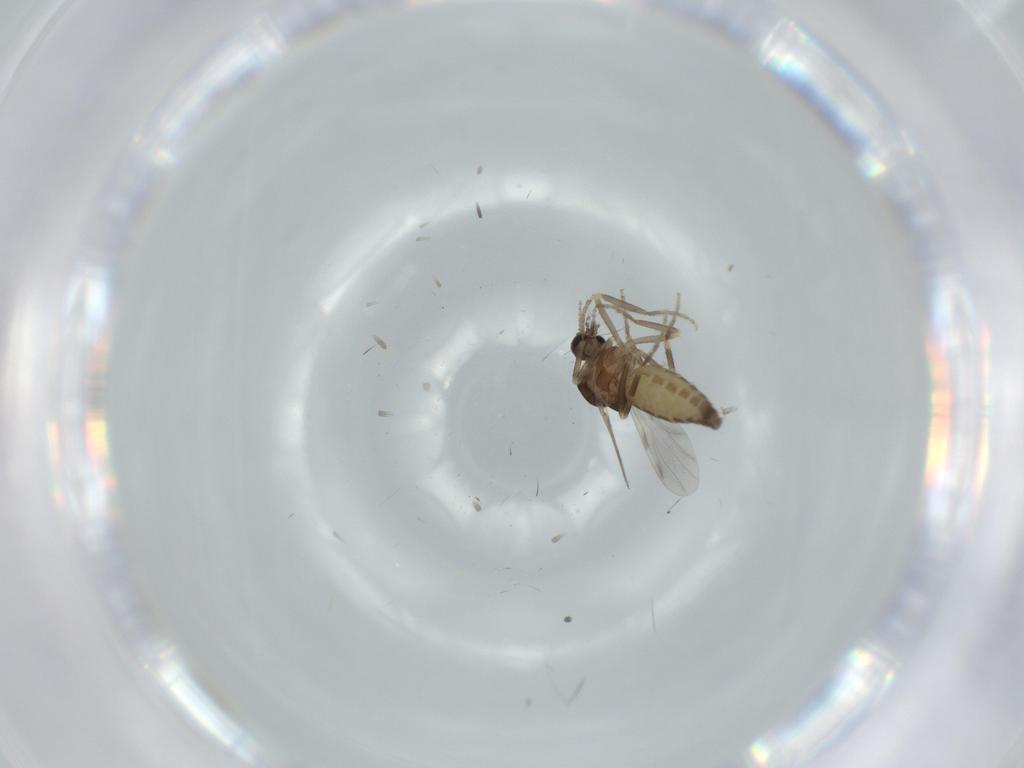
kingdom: Animalia
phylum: Arthropoda
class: Insecta
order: Diptera
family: Ceratopogonidae
